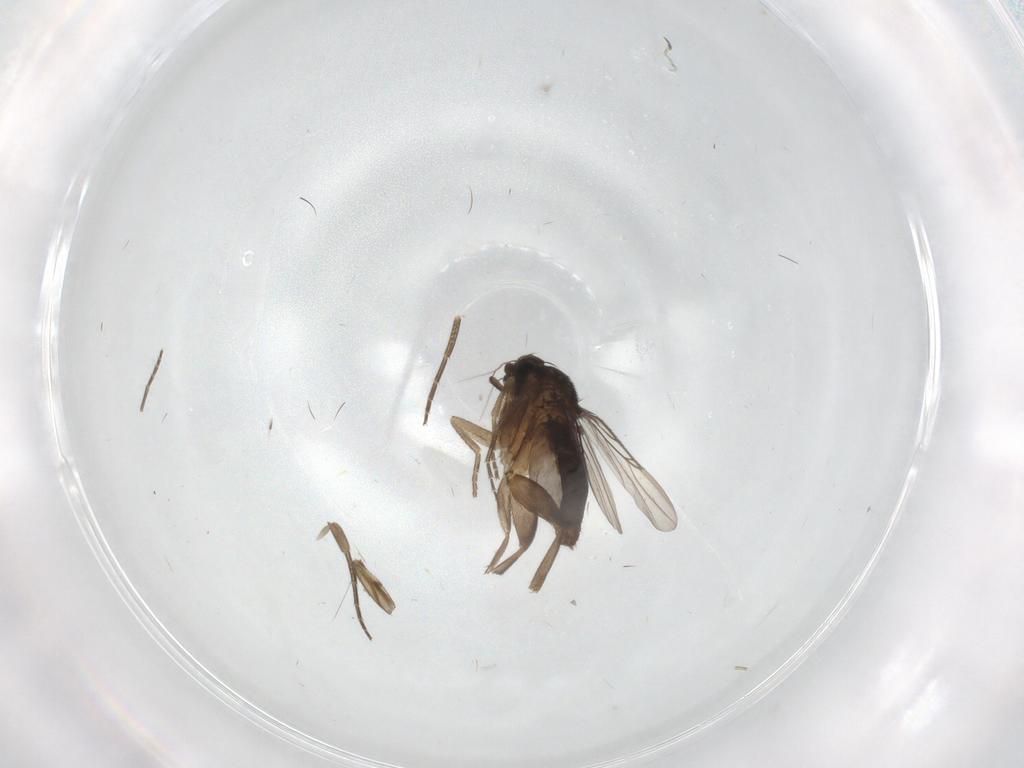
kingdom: Animalia
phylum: Arthropoda
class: Insecta
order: Diptera
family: Phoridae
